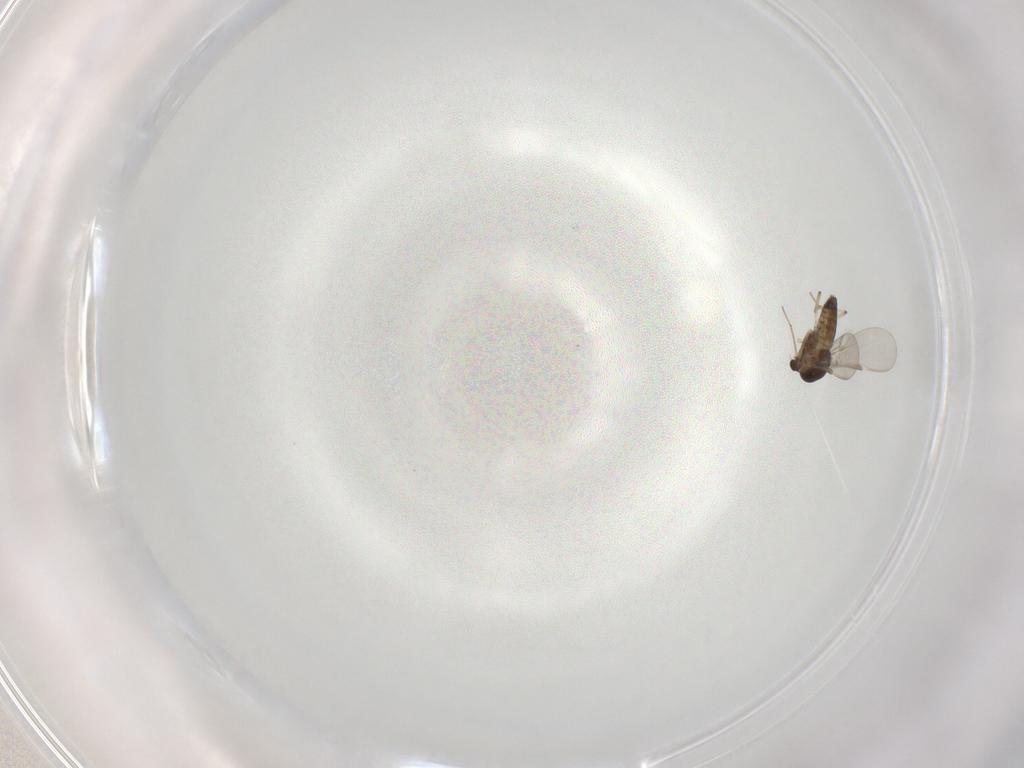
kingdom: Animalia
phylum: Arthropoda
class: Insecta
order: Diptera
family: Chironomidae
